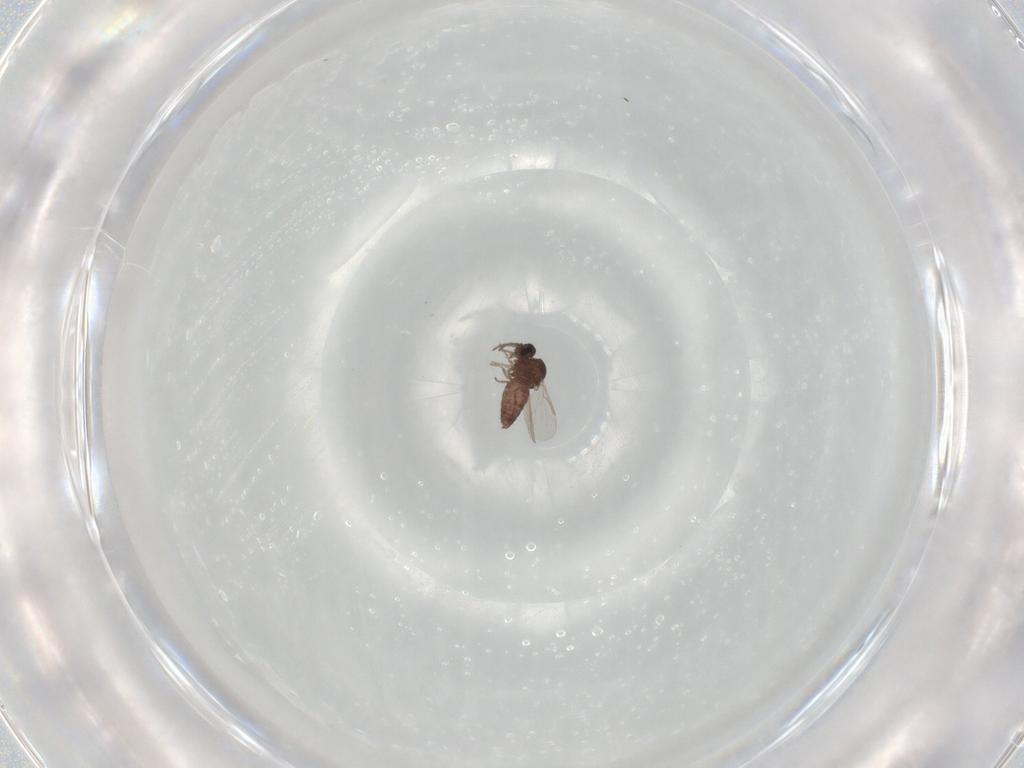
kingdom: Animalia
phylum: Arthropoda
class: Insecta
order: Diptera
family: Ceratopogonidae
